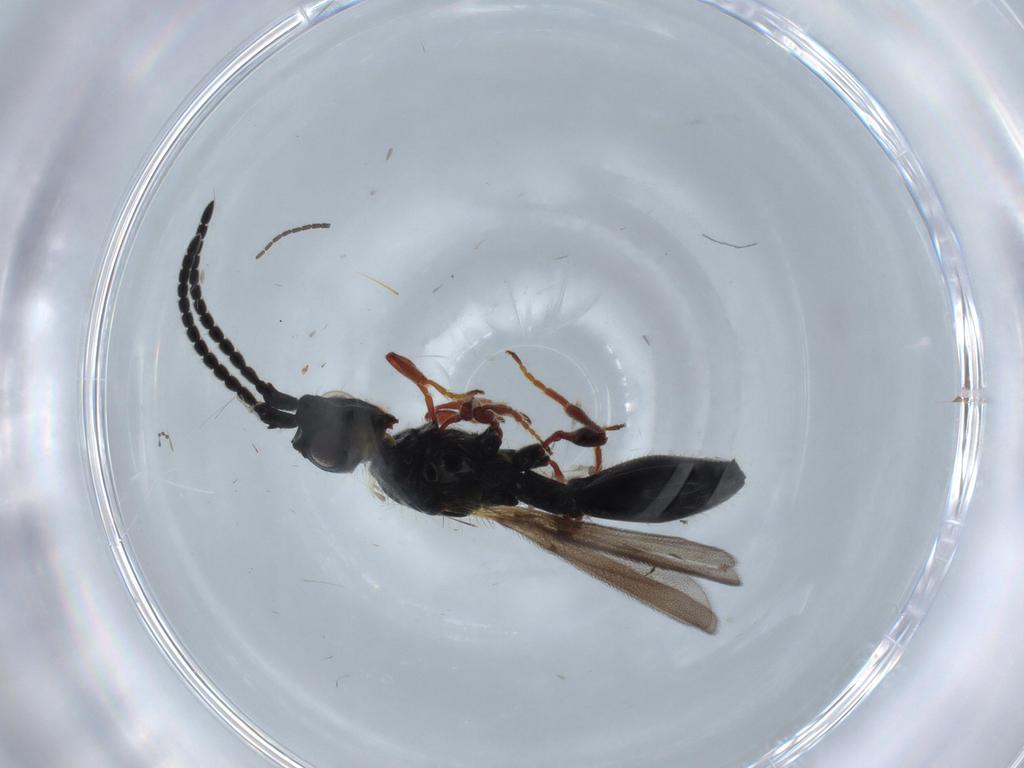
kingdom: Animalia
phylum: Arthropoda
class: Insecta
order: Hymenoptera
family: Diapriidae
